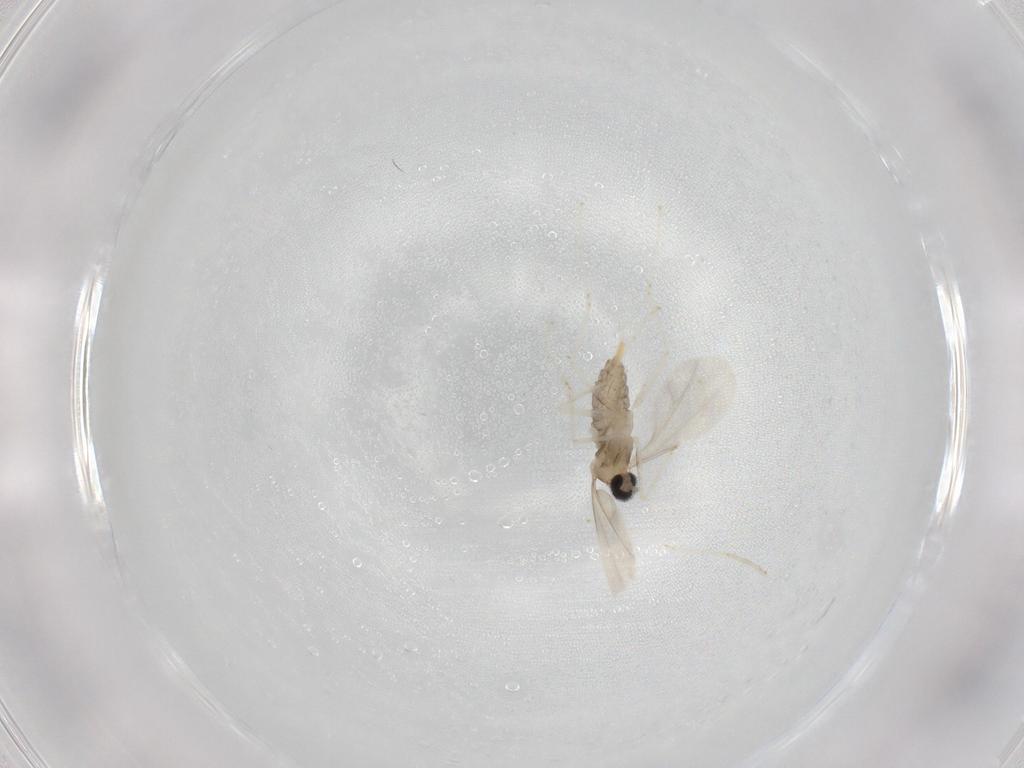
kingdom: Animalia
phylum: Arthropoda
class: Insecta
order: Diptera
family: Cecidomyiidae
